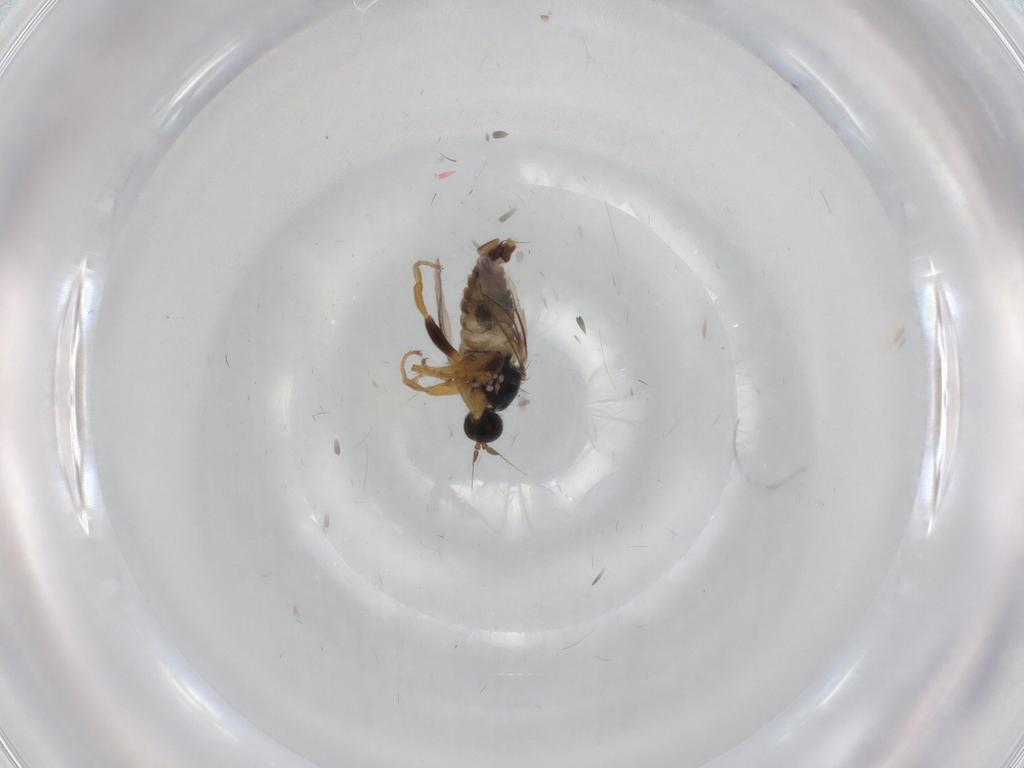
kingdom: Animalia
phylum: Arthropoda
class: Insecta
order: Diptera
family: Hybotidae
